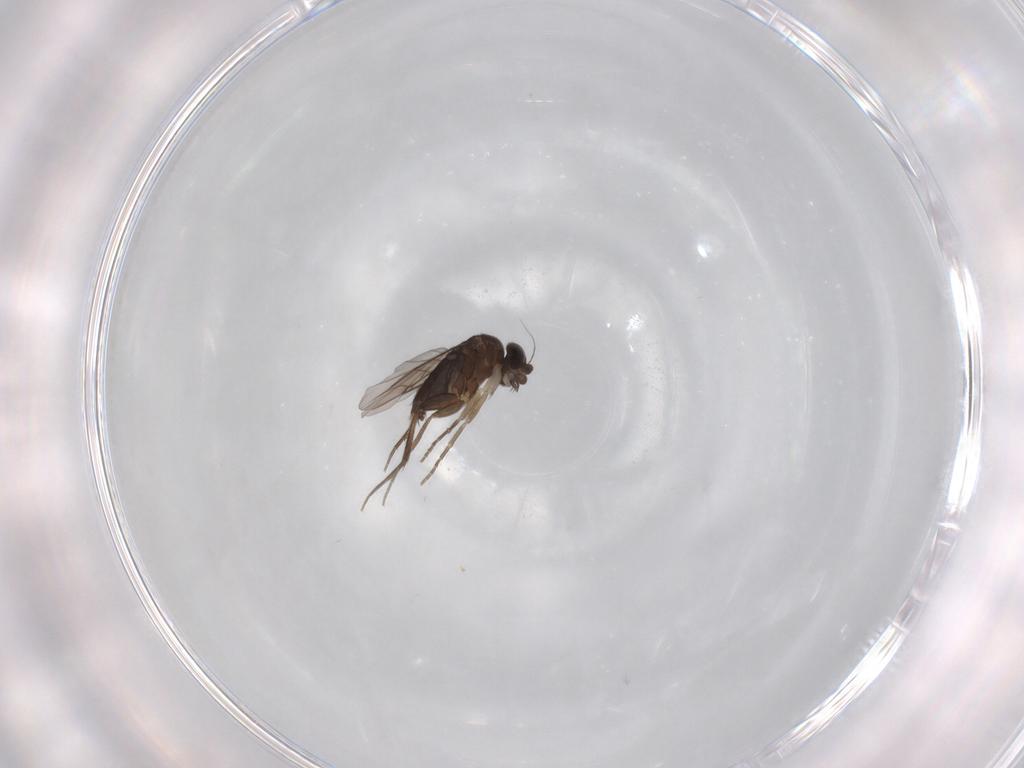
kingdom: Animalia
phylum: Arthropoda
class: Insecta
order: Diptera
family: Phoridae
